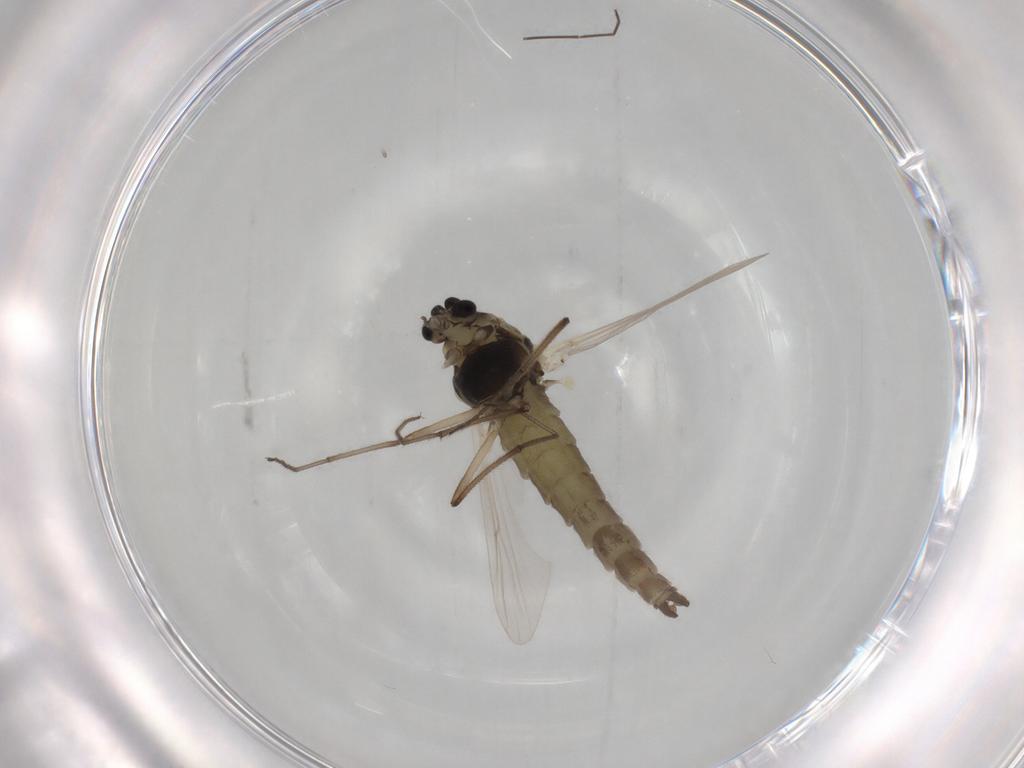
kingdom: Animalia
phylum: Arthropoda
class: Insecta
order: Diptera
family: Chironomidae
